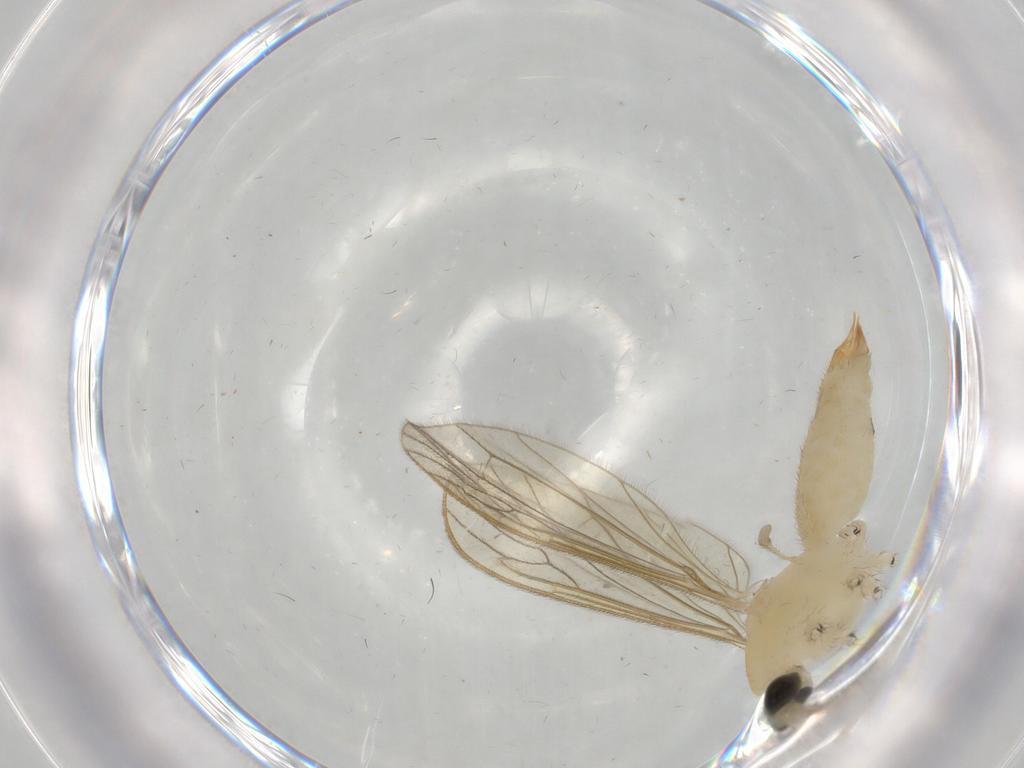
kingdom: Animalia
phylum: Arthropoda
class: Insecta
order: Diptera
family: Limoniidae
